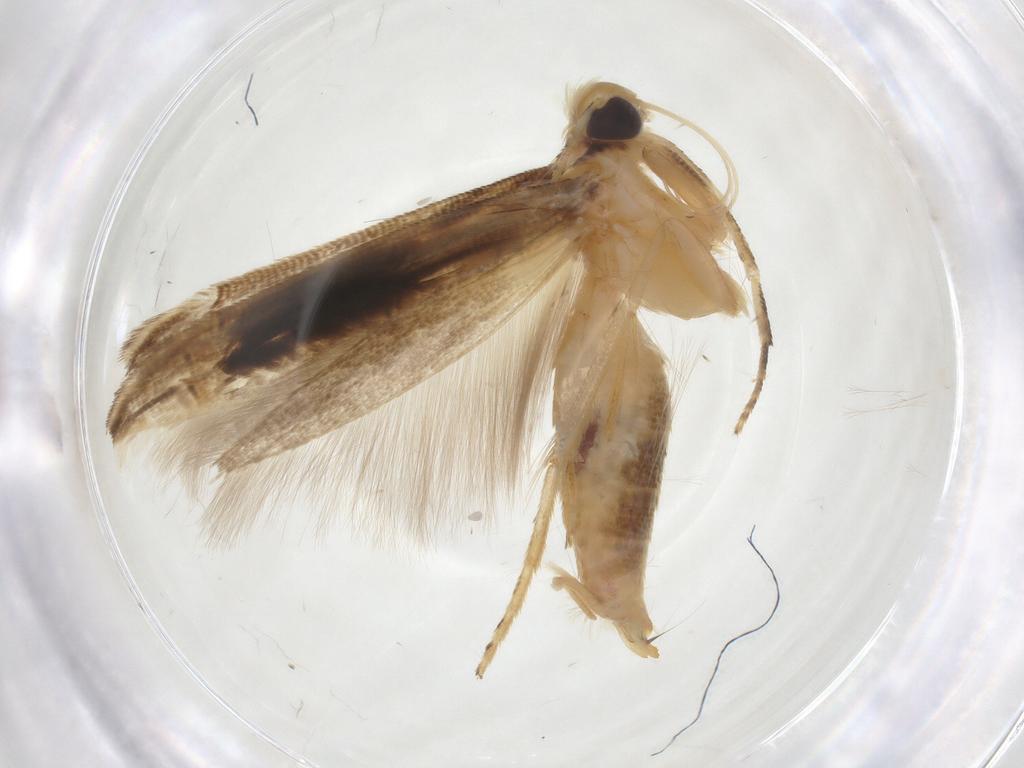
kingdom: Animalia
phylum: Arthropoda
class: Insecta
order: Lepidoptera
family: Momphidae
